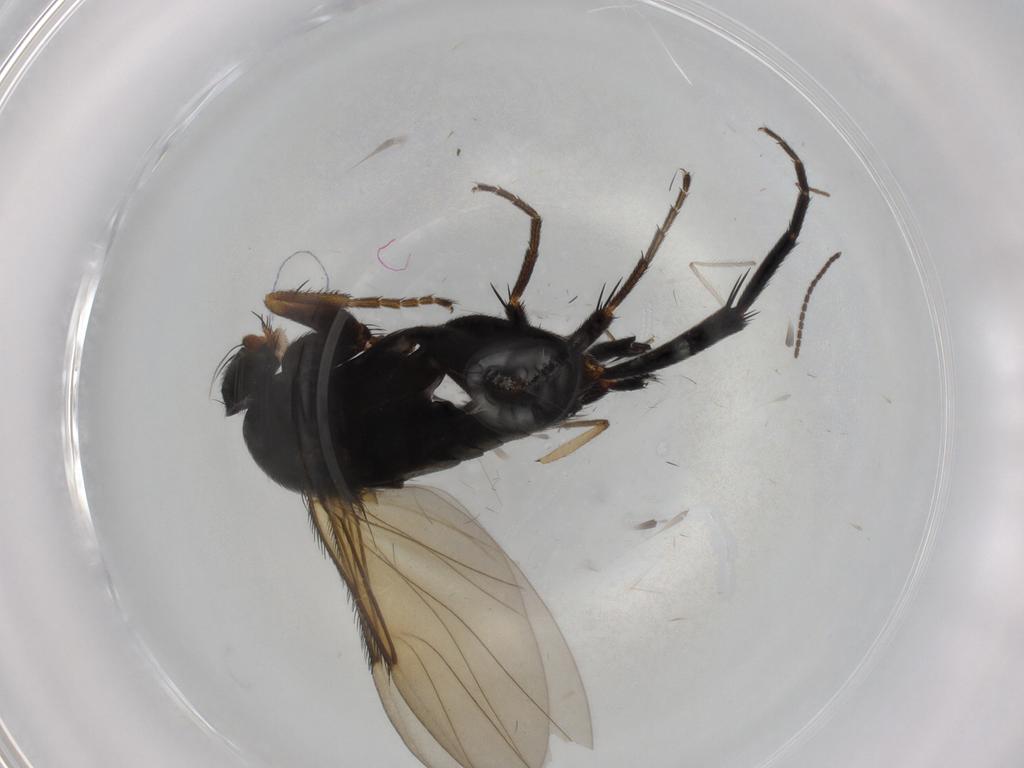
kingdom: Animalia
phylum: Arthropoda
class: Insecta
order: Diptera
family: Phoridae
